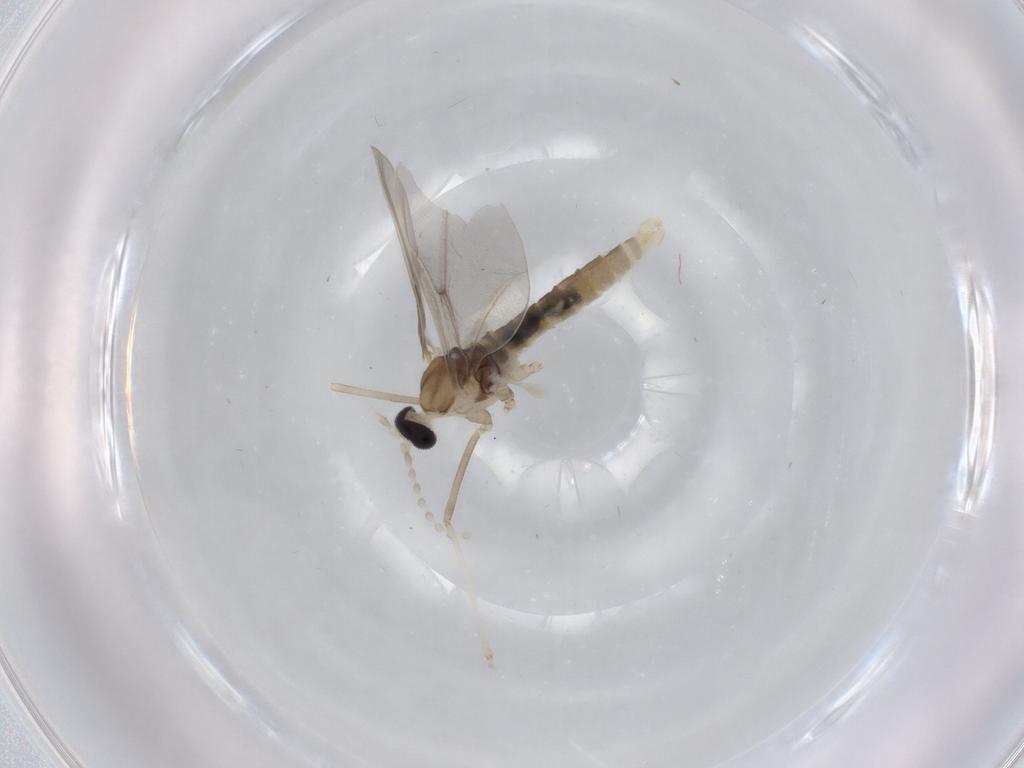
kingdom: Animalia
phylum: Arthropoda
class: Insecta
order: Diptera
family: Cecidomyiidae
